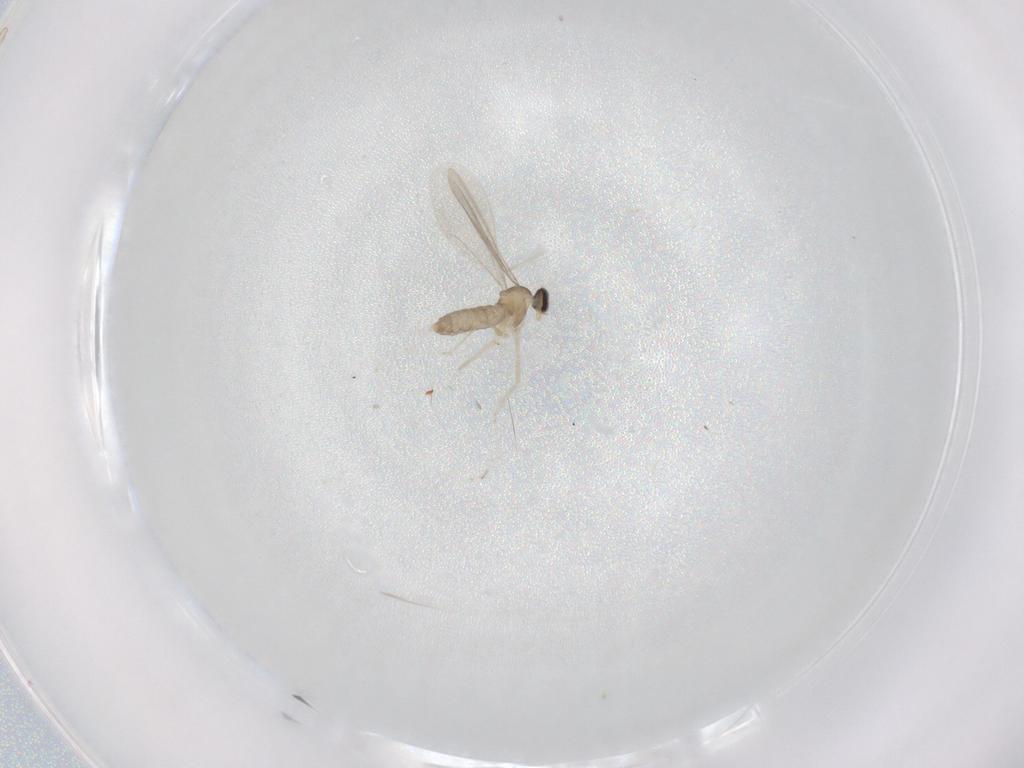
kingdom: Animalia
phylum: Arthropoda
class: Insecta
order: Diptera
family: Cecidomyiidae
